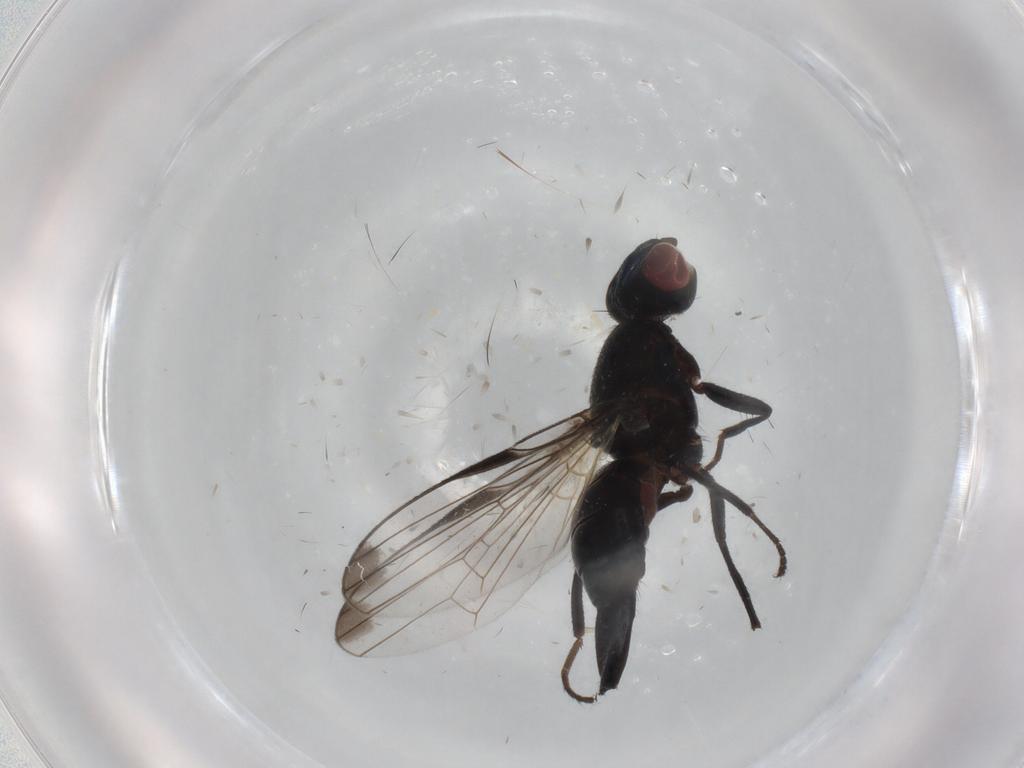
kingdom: Animalia
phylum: Arthropoda
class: Insecta
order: Diptera
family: Ulidiidae
